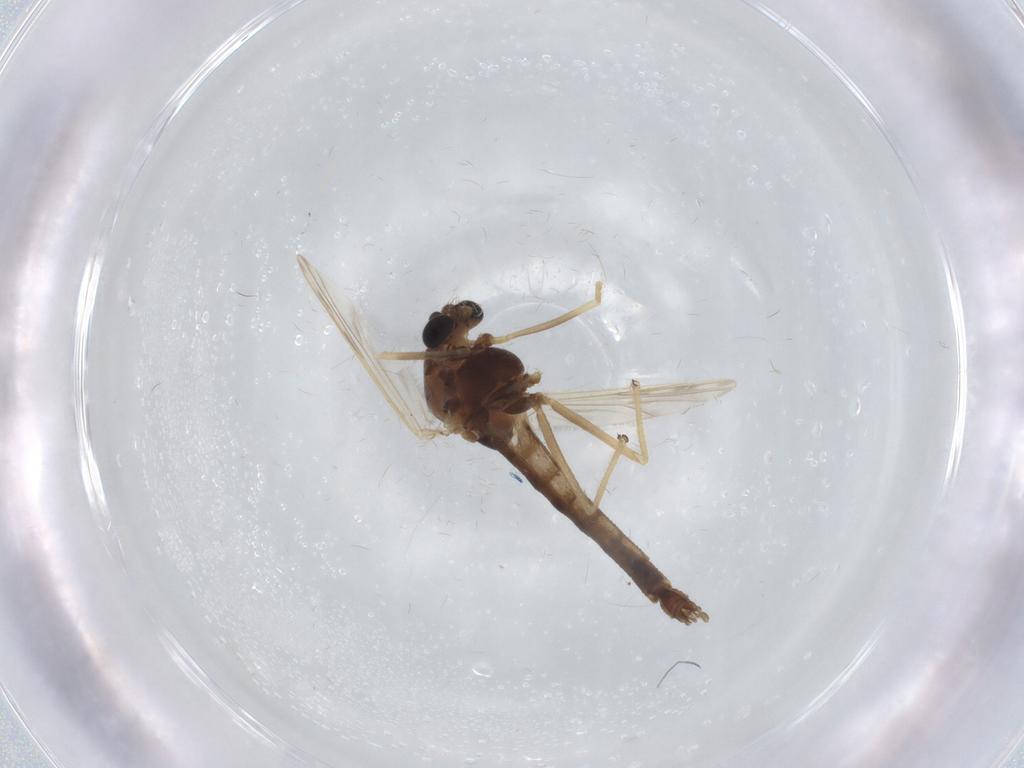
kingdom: Animalia
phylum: Arthropoda
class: Insecta
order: Diptera
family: Chironomidae
